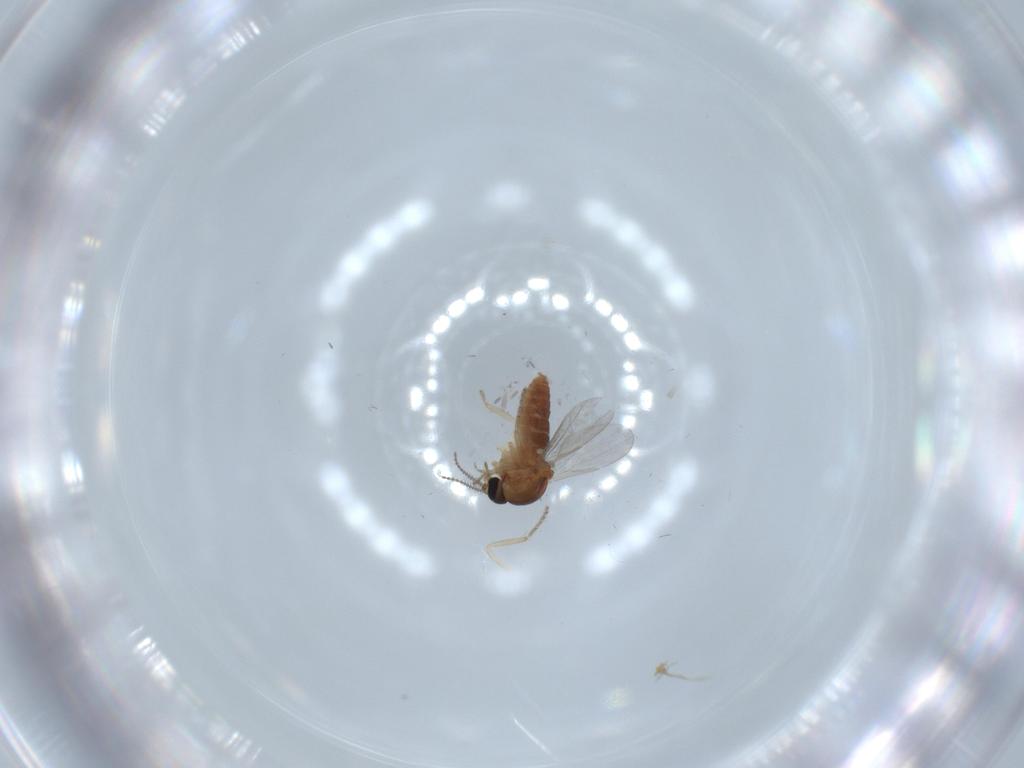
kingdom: Animalia
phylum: Arthropoda
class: Insecta
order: Diptera
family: Ceratopogonidae
